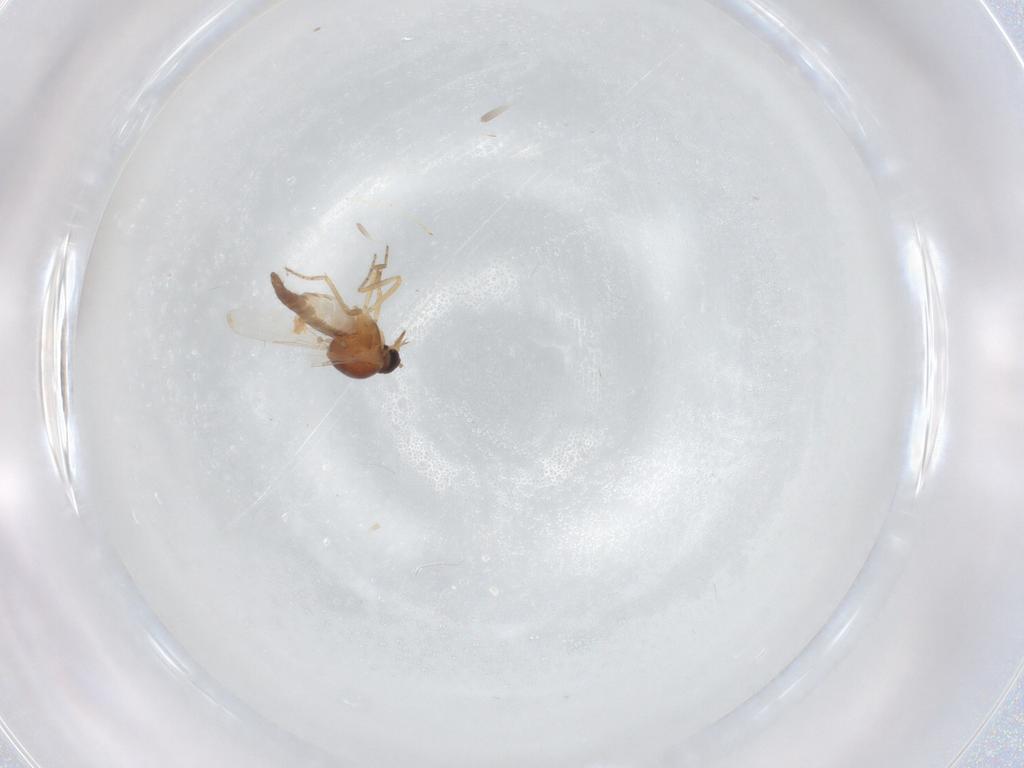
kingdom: Animalia
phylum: Arthropoda
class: Insecta
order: Diptera
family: Ceratopogonidae
